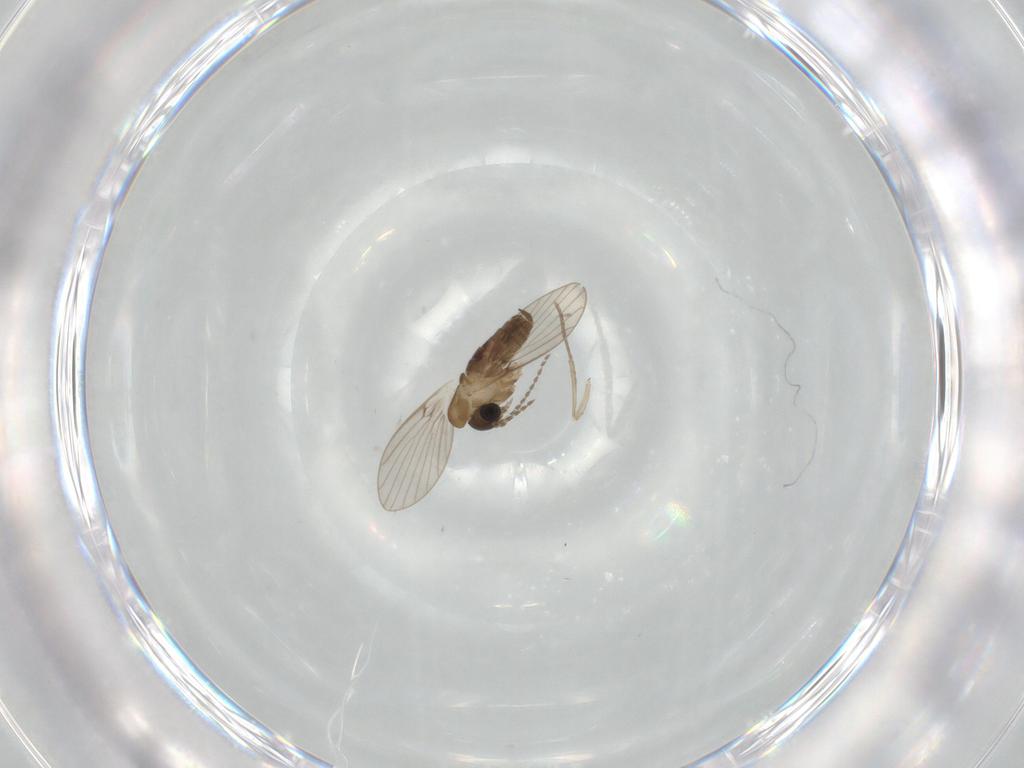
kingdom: Animalia
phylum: Arthropoda
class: Insecta
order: Diptera
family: Psychodidae
